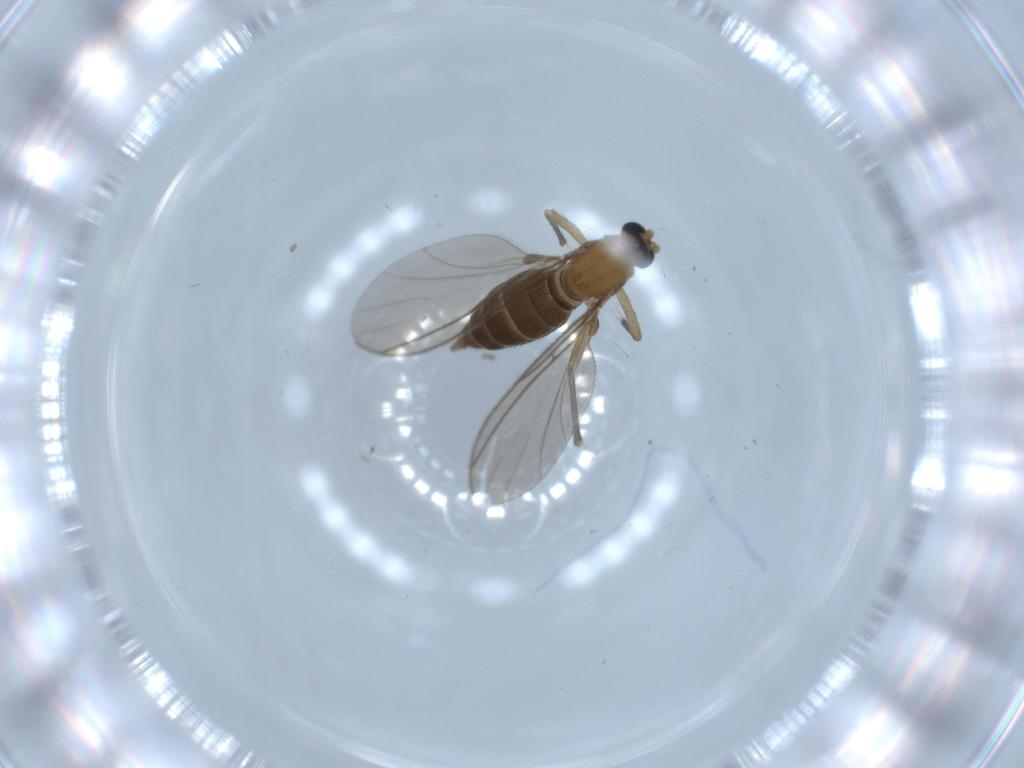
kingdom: Animalia
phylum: Arthropoda
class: Insecta
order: Diptera
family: Sciaridae
